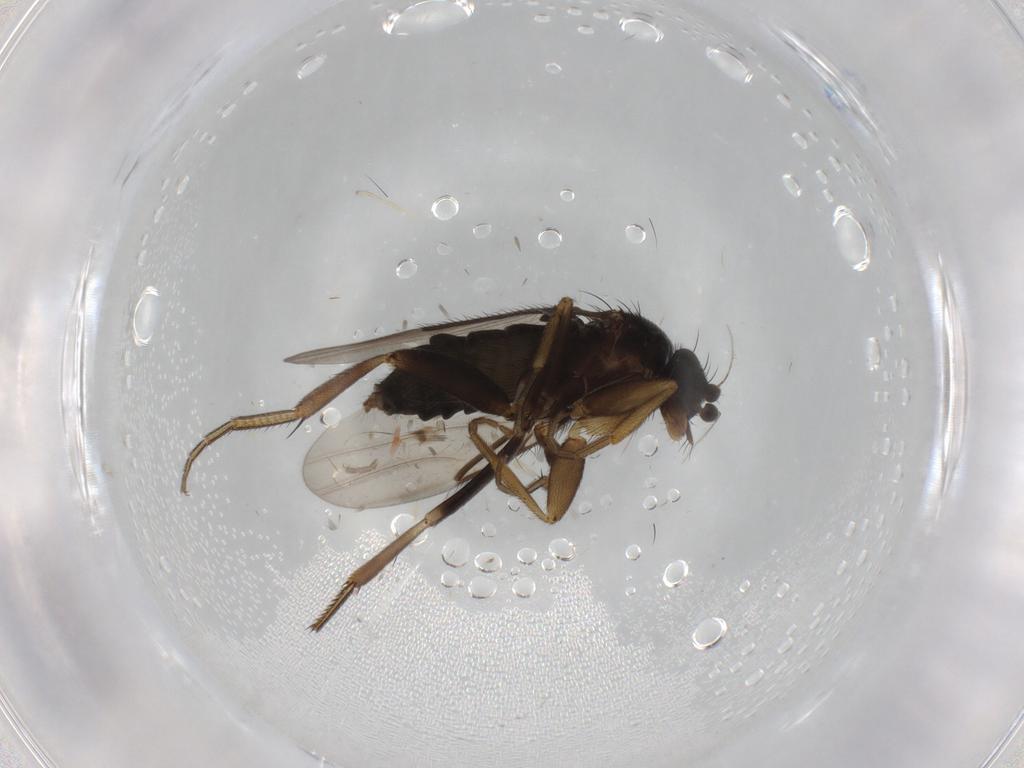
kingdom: Animalia
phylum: Arthropoda
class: Insecta
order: Diptera
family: Phoridae
